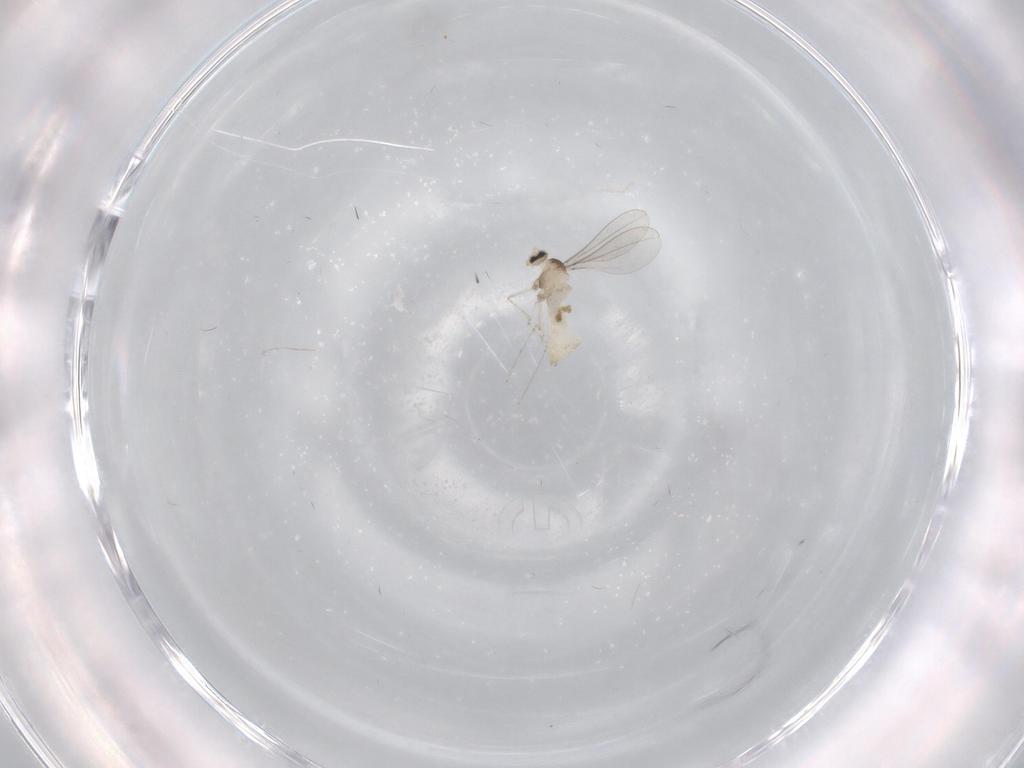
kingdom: Animalia
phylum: Arthropoda
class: Insecta
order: Diptera
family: Cecidomyiidae
